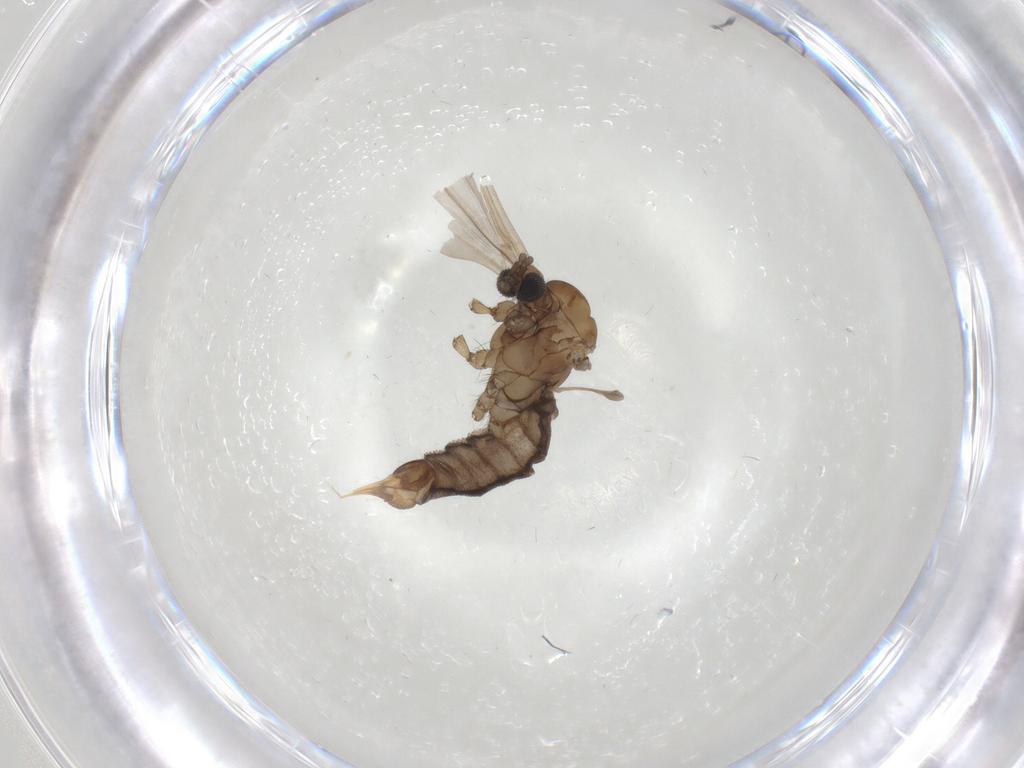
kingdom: Animalia
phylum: Arthropoda
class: Insecta
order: Diptera
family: Limoniidae
